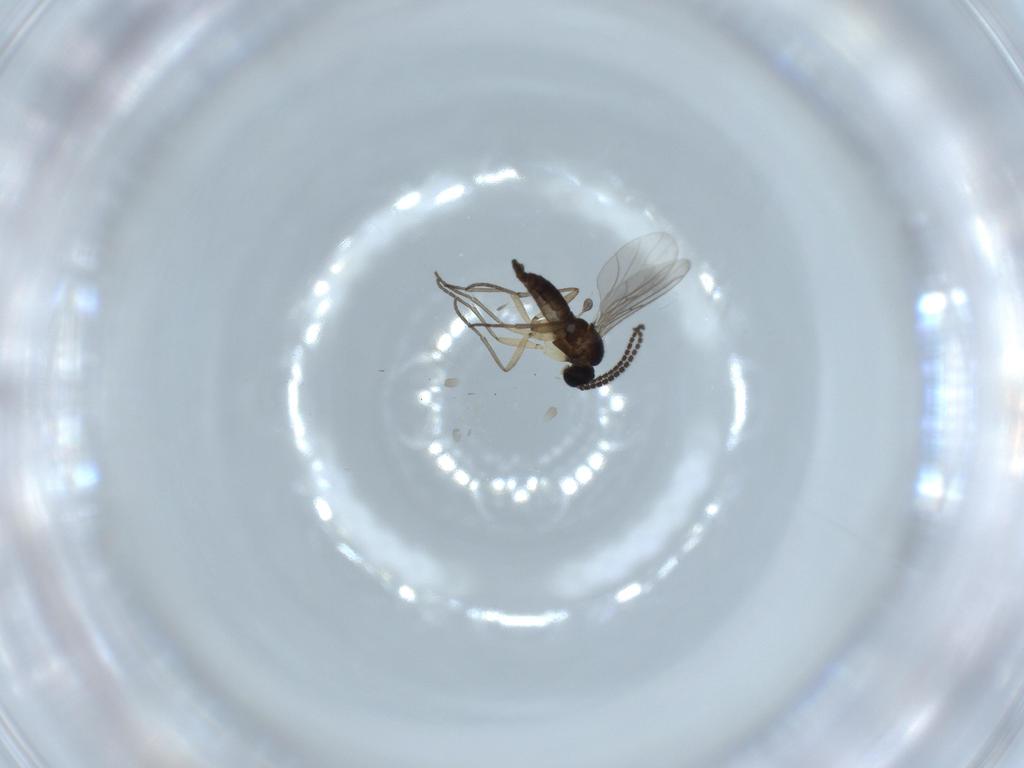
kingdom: Animalia
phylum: Arthropoda
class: Insecta
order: Diptera
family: Sciaridae
